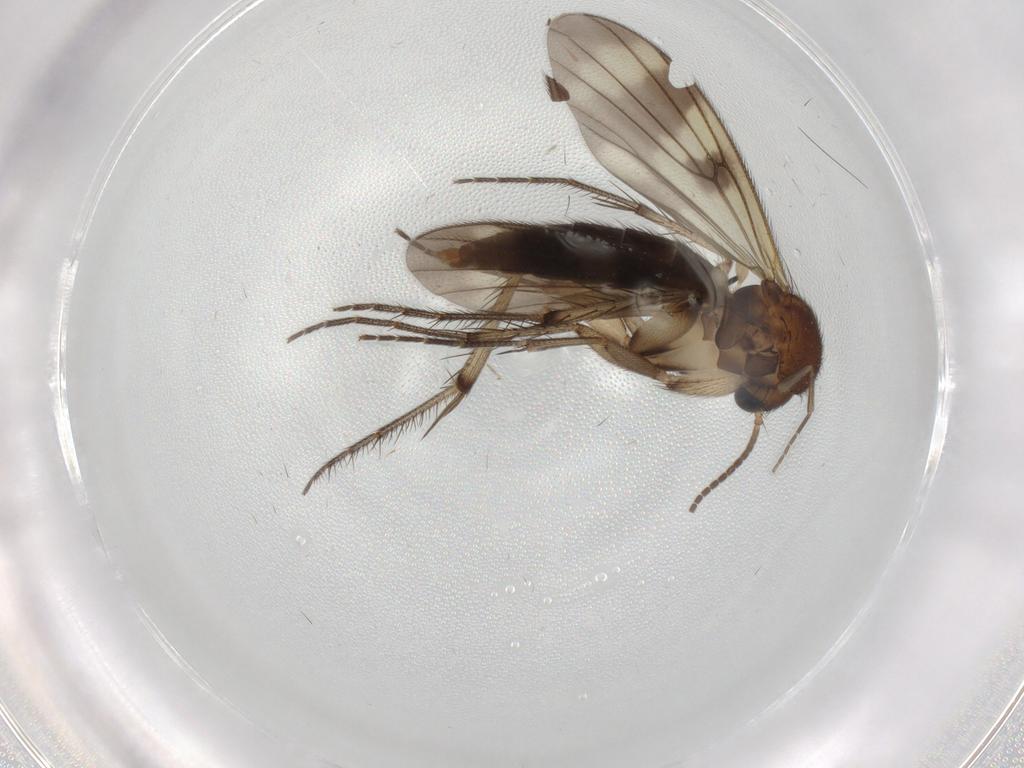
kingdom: Animalia
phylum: Arthropoda
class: Insecta
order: Diptera
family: Mycetophilidae
